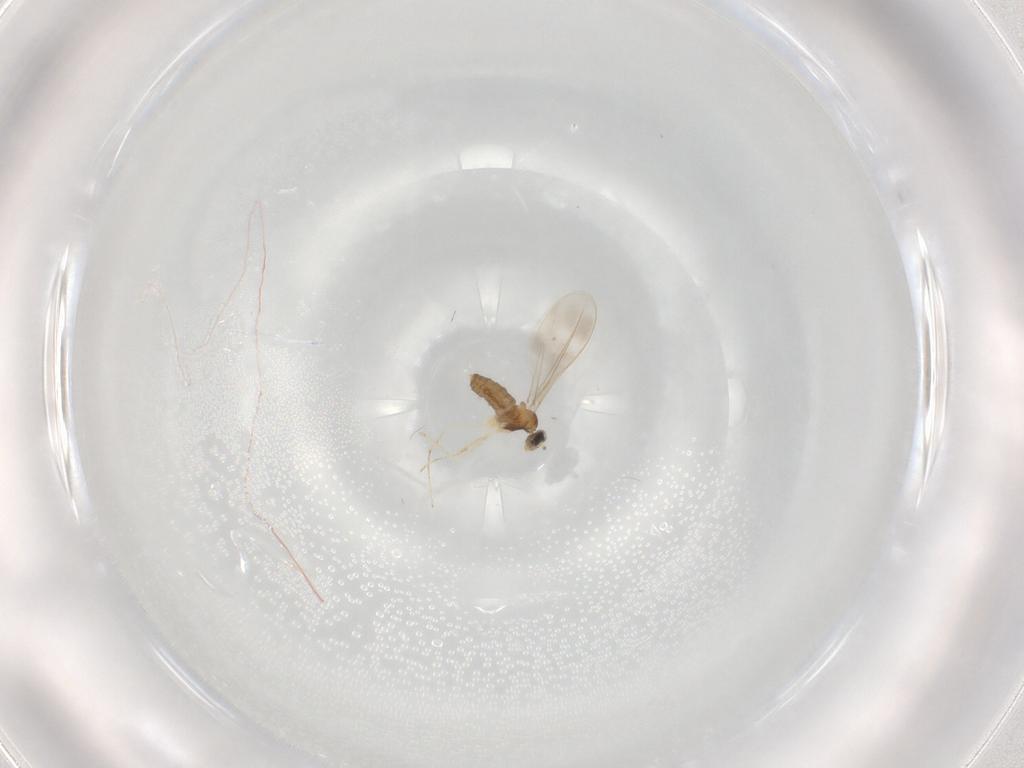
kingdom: Animalia
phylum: Arthropoda
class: Insecta
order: Diptera
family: Cecidomyiidae
